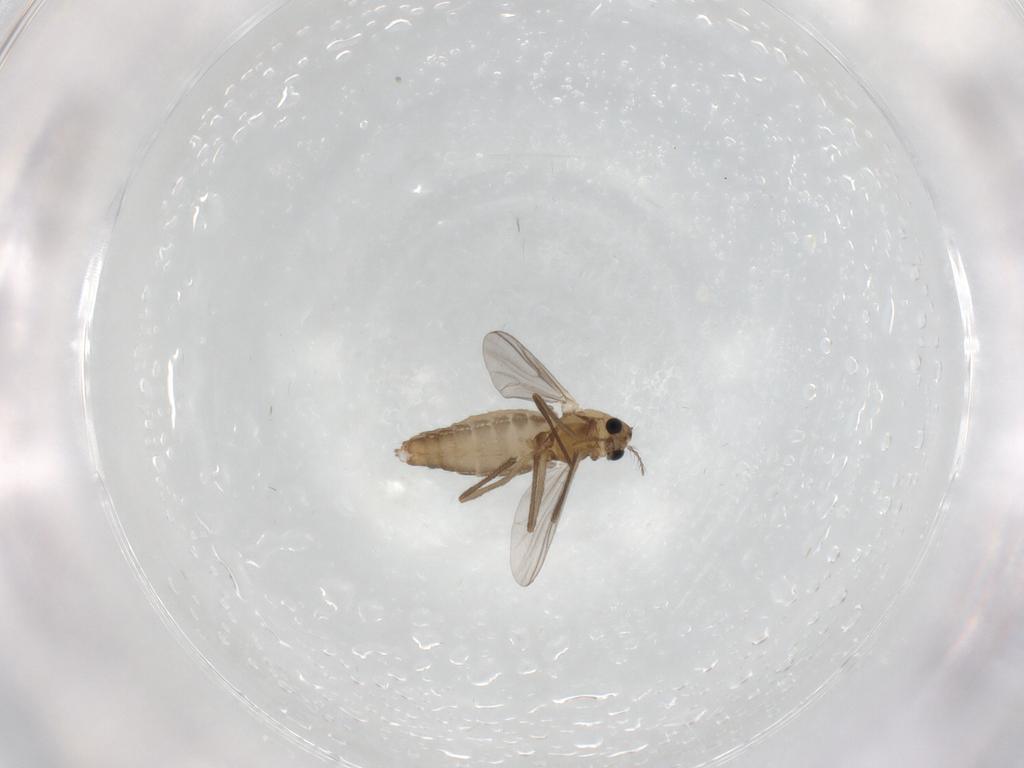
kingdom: Animalia
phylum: Arthropoda
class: Insecta
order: Diptera
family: Chironomidae
